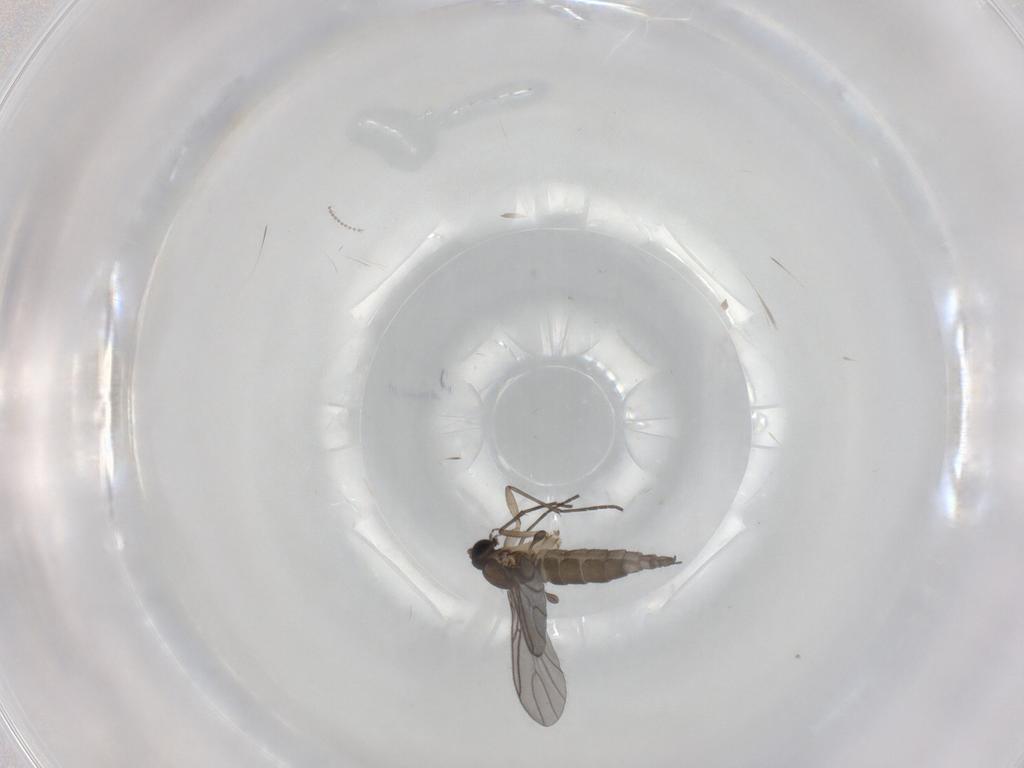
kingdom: Animalia
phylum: Arthropoda
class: Insecta
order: Diptera
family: Sciaridae
